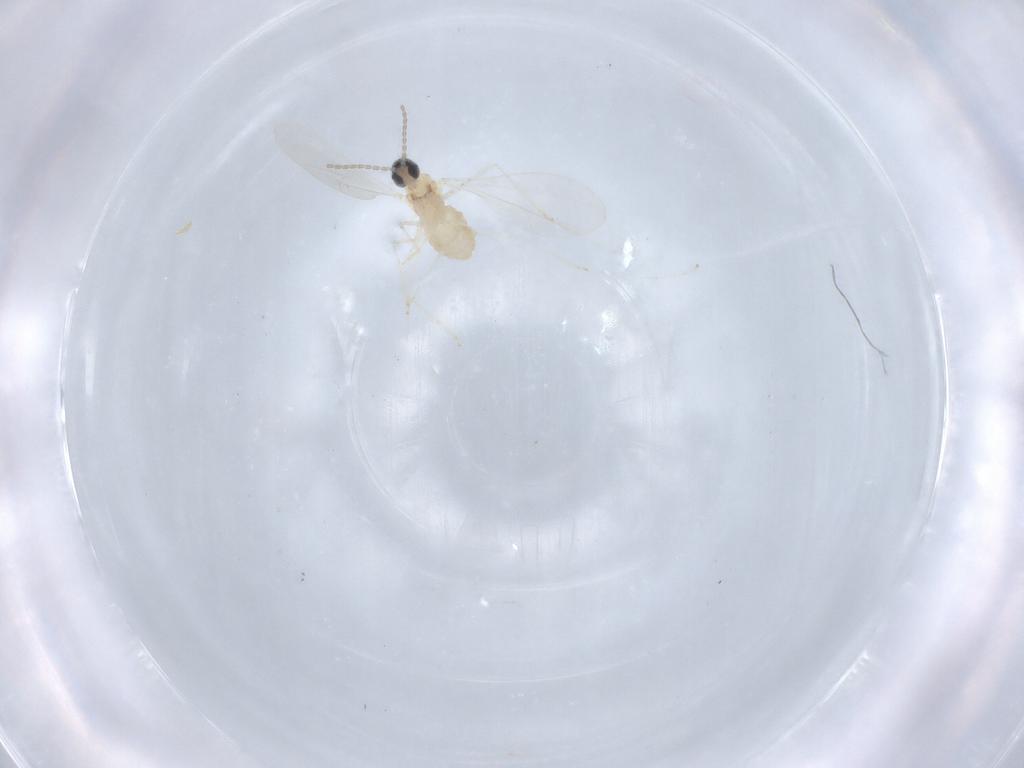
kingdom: Animalia
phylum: Arthropoda
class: Insecta
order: Diptera
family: Cecidomyiidae
